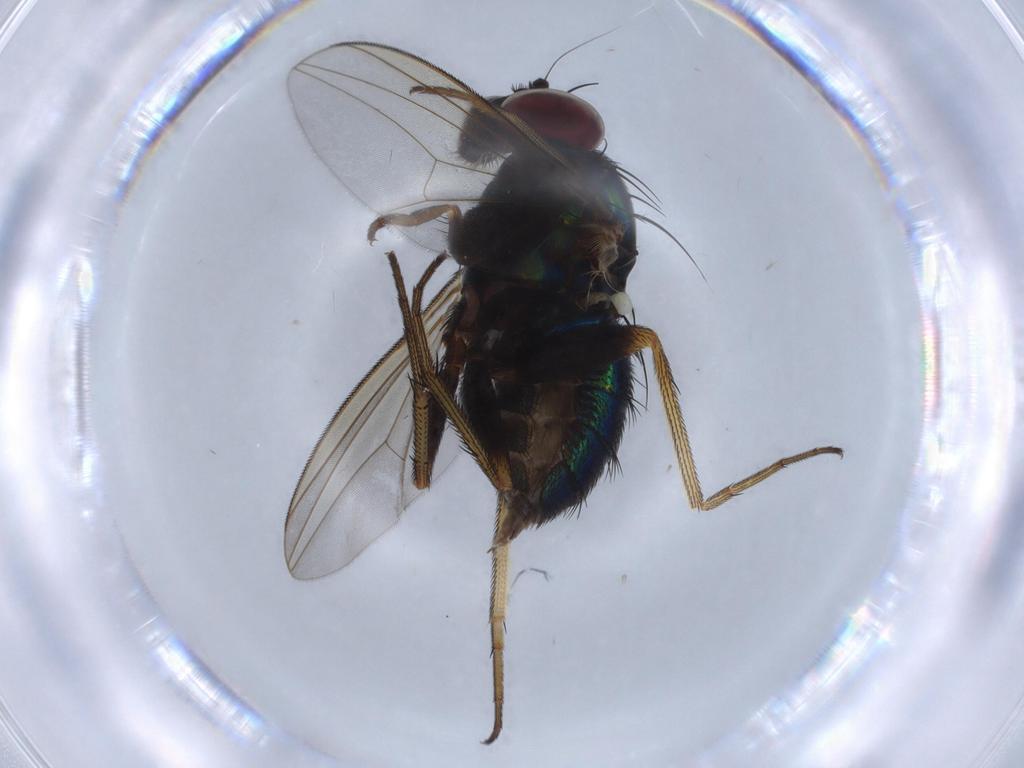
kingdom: Animalia
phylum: Arthropoda
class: Insecta
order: Diptera
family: Dolichopodidae
